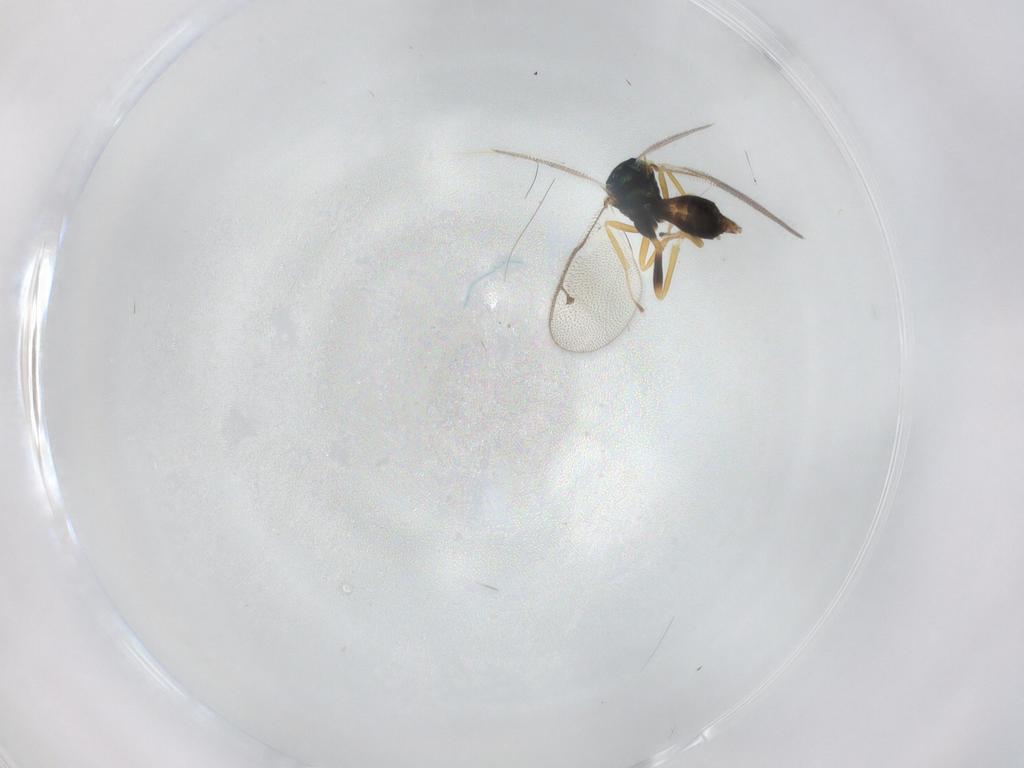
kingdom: Animalia
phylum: Arthropoda
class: Insecta
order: Hymenoptera
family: Pteromalidae
